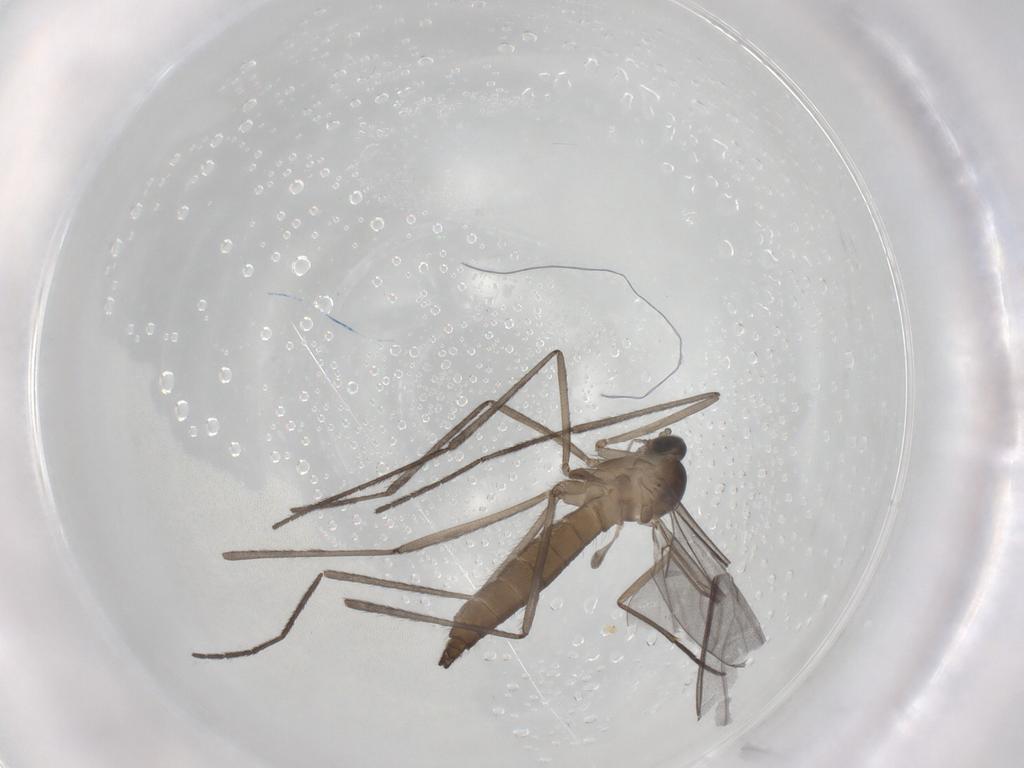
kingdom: Animalia
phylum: Arthropoda
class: Insecta
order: Diptera
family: Cecidomyiidae
